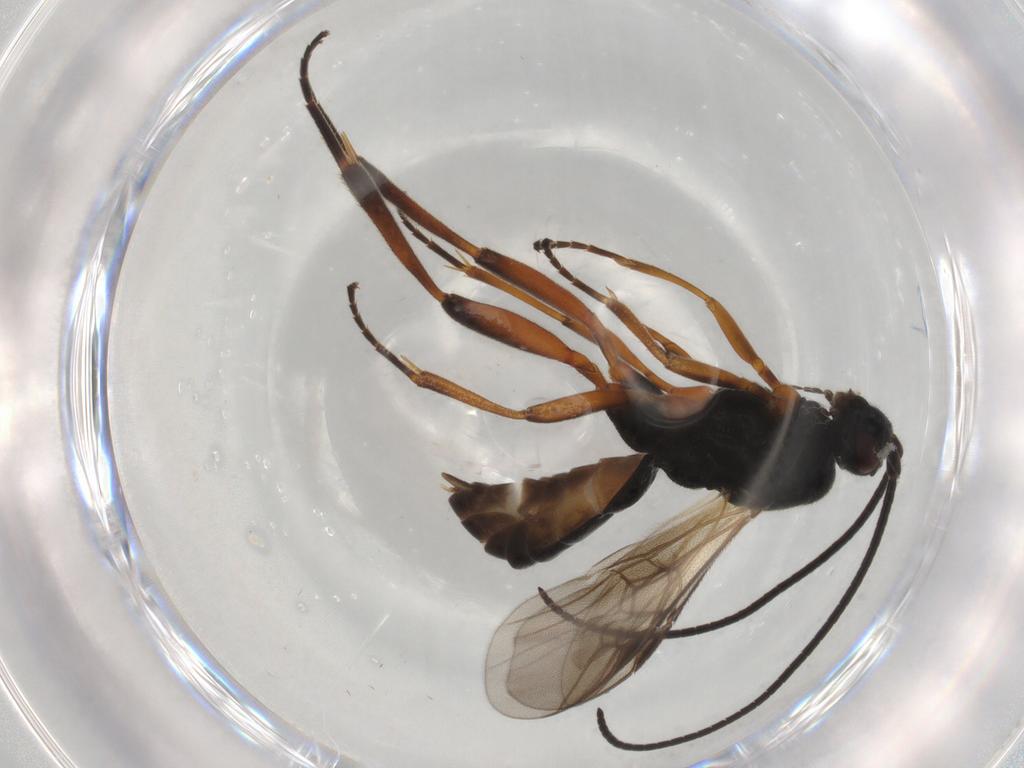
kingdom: Animalia
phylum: Arthropoda
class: Insecta
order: Hymenoptera
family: Braconidae
